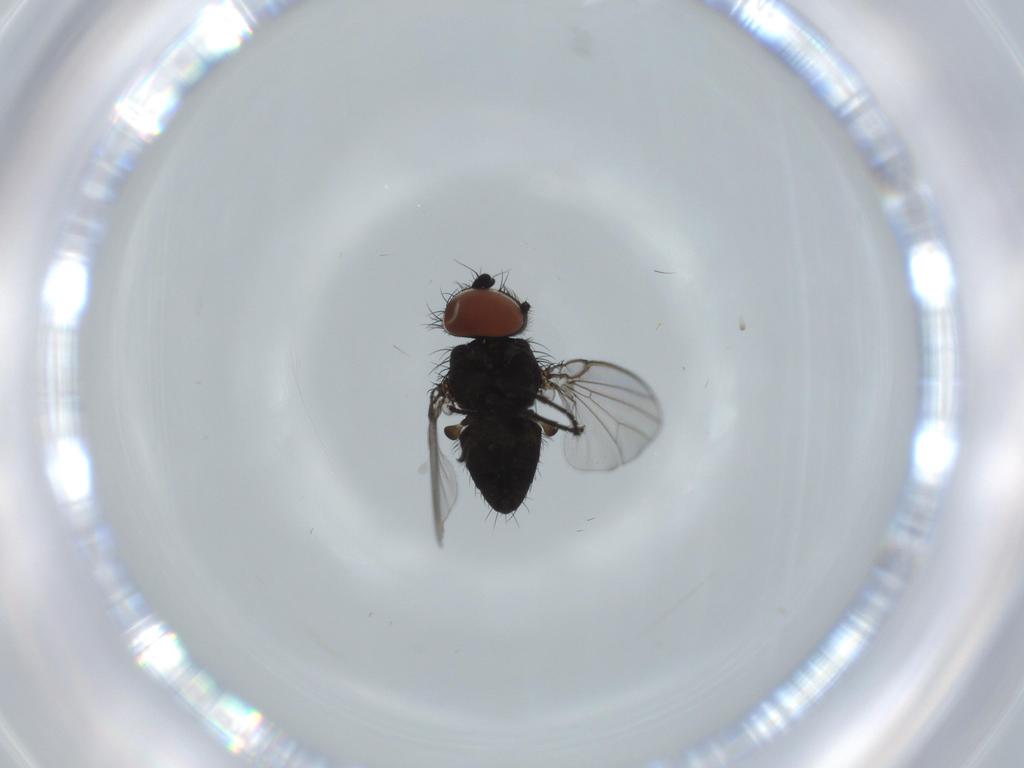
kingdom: Animalia
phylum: Arthropoda
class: Insecta
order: Diptera
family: Milichiidae
